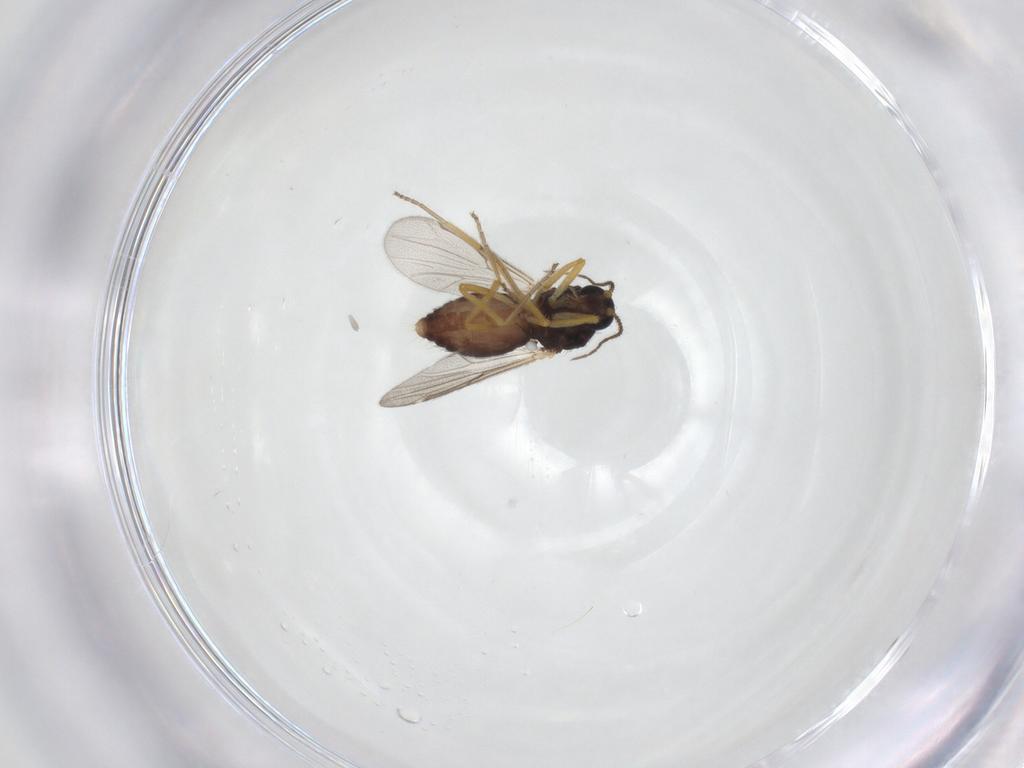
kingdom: Animalia
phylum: Arthropoda
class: Insecta
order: Diptera
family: Ceratopogonidae
